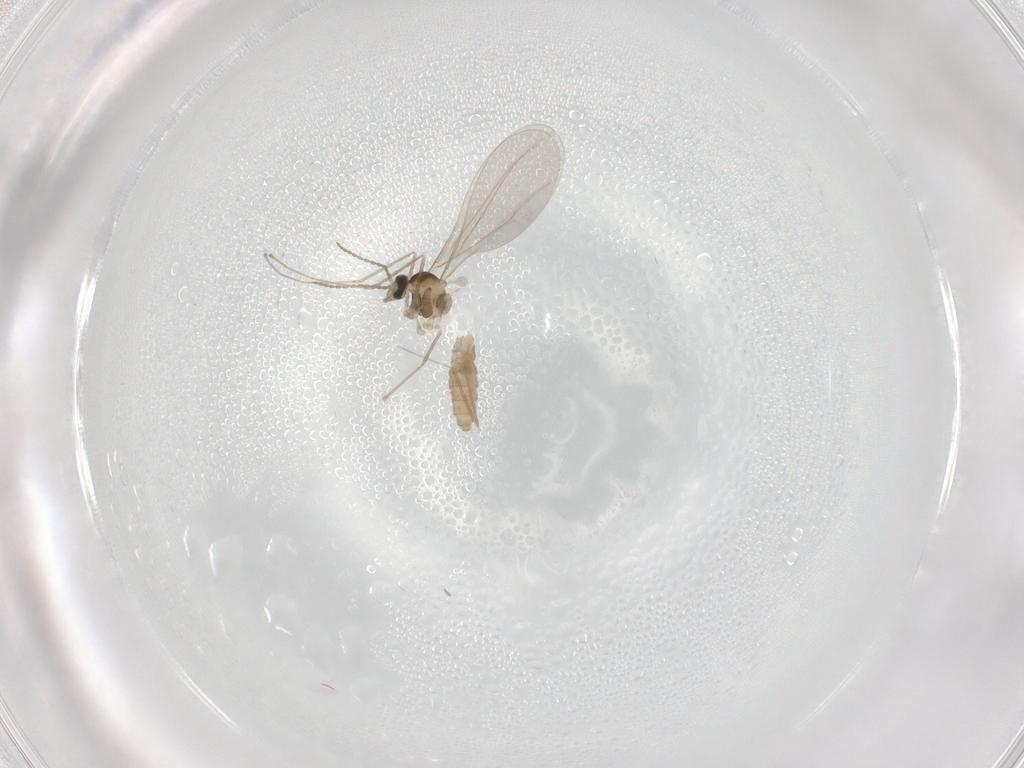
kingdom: Animalia
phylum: Arthropoda
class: Insecta
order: Diptera
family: Cecidomyiidae
